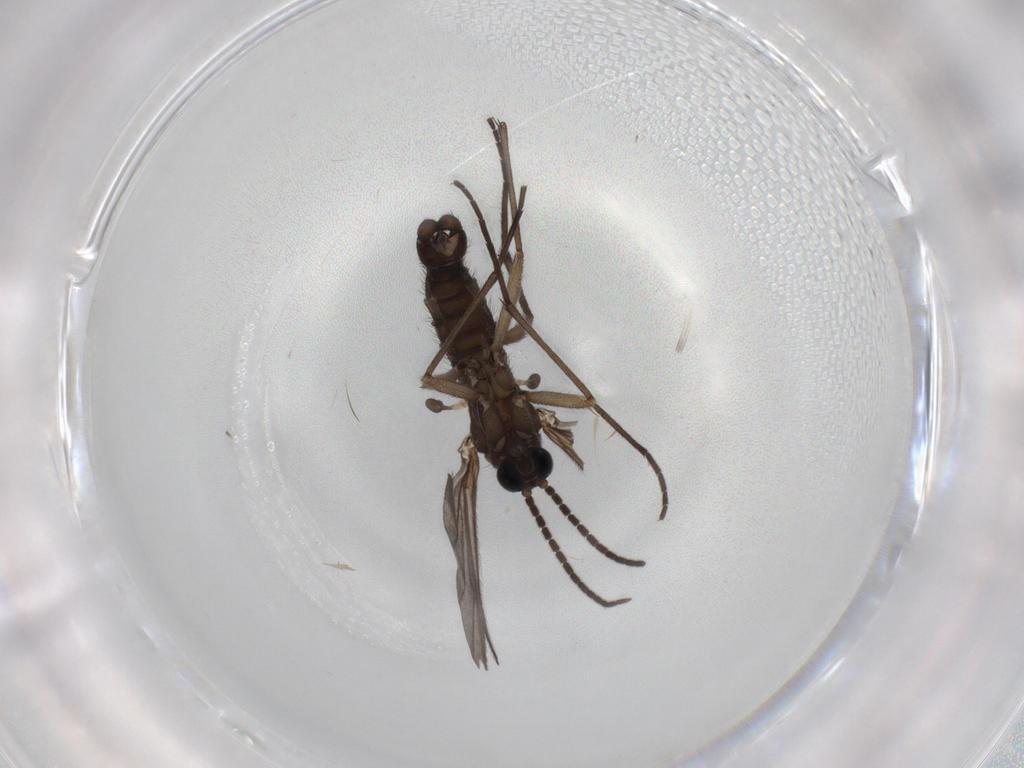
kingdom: Animalia
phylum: Arthropoda
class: Insecta
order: Diptera
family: Sciaridae
